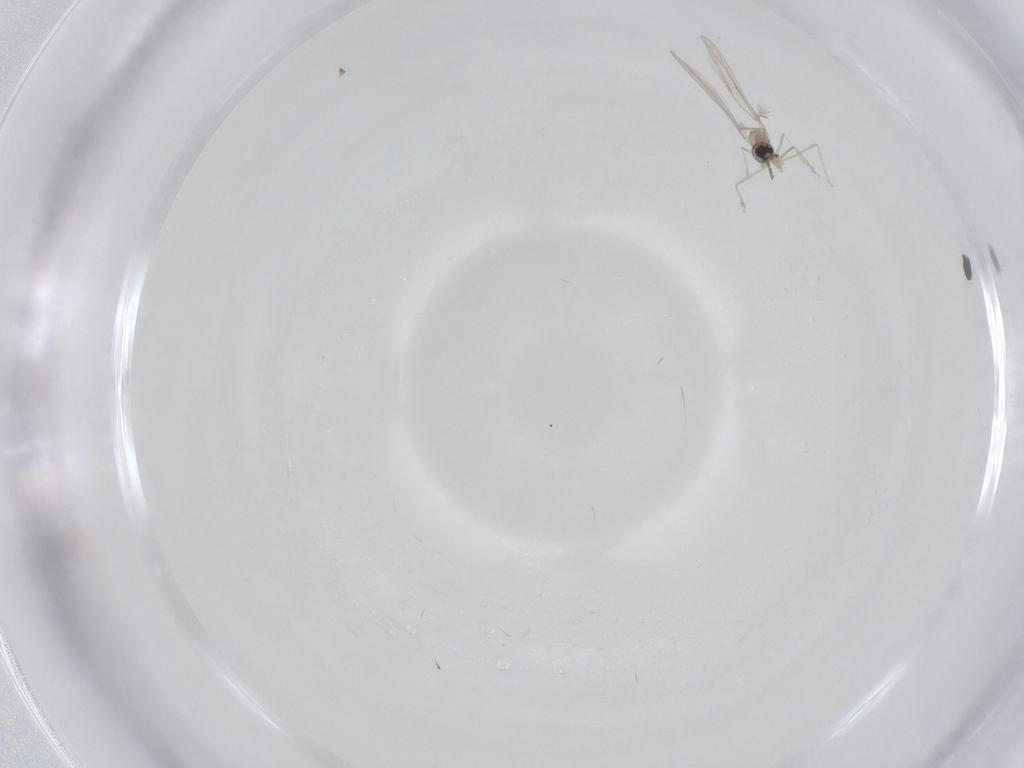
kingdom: Animalia
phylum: Arthropoda
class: Insecta
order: Diptera
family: Cecidomyiidae
